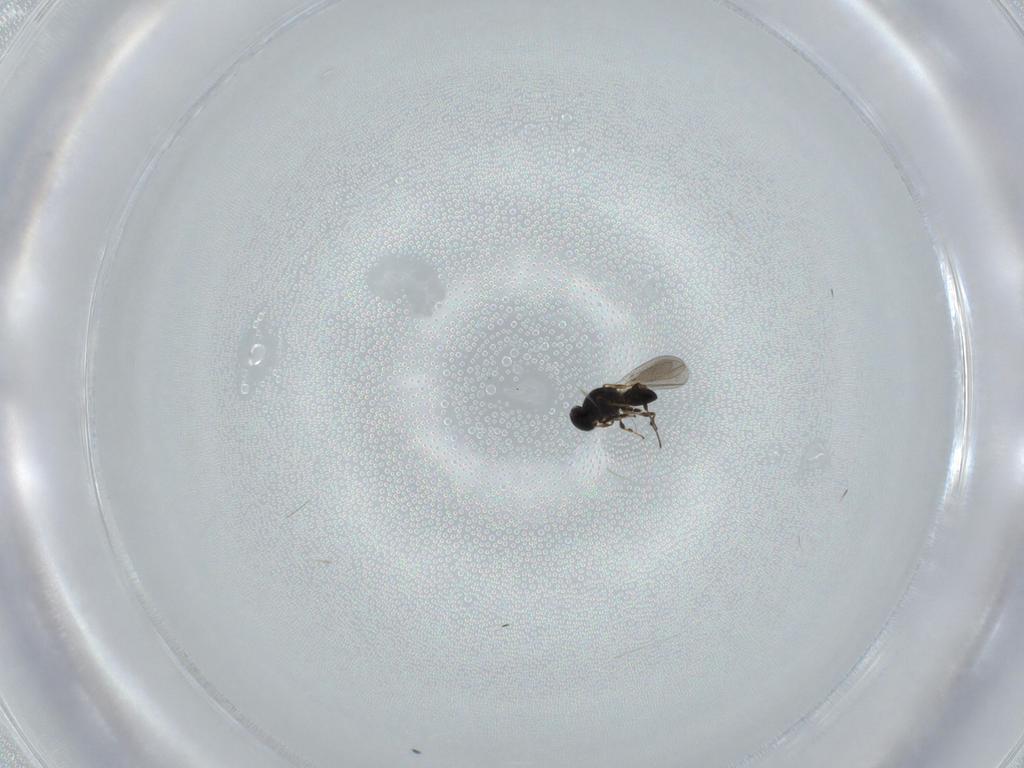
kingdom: Animalia
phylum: Arthropoda
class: Insecta
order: Hymenoptera
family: Platygastridae
